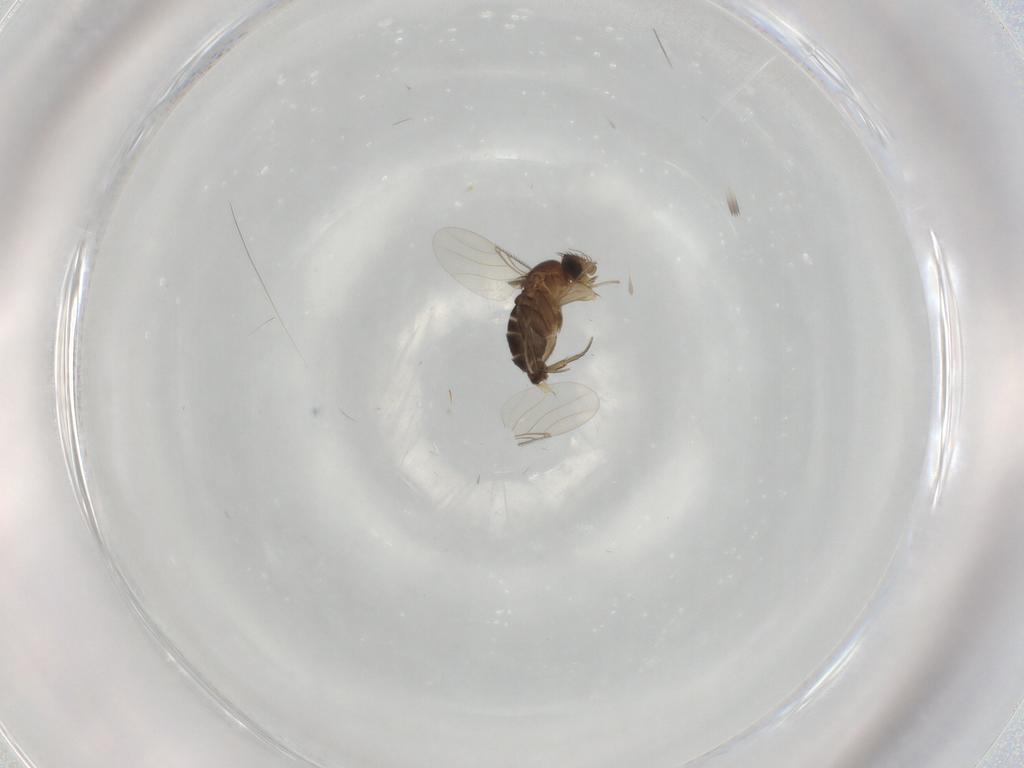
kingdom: Animalia
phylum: Arthropoda
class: Insecta
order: Diptera
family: Phoridae
